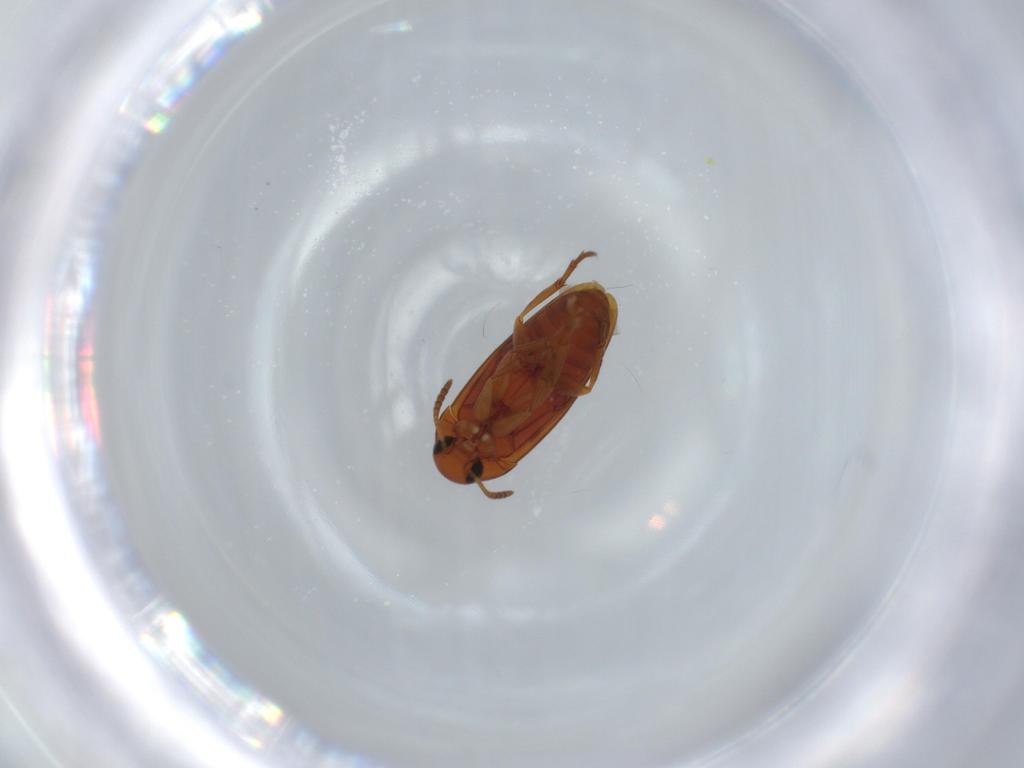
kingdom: Animalia
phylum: Arthropoda
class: Insecta
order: Coleoptera
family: Scraptiidae
